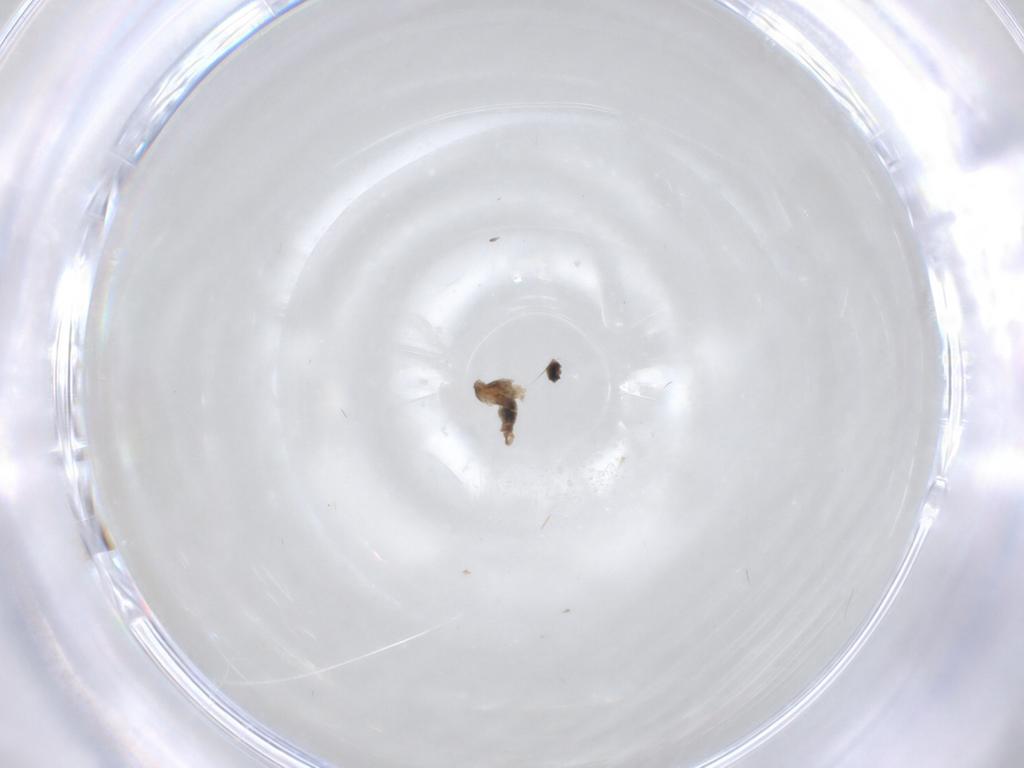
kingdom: Animalia
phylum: Arthropoda
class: Insecta
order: Diptera
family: Cecidomyiidae
